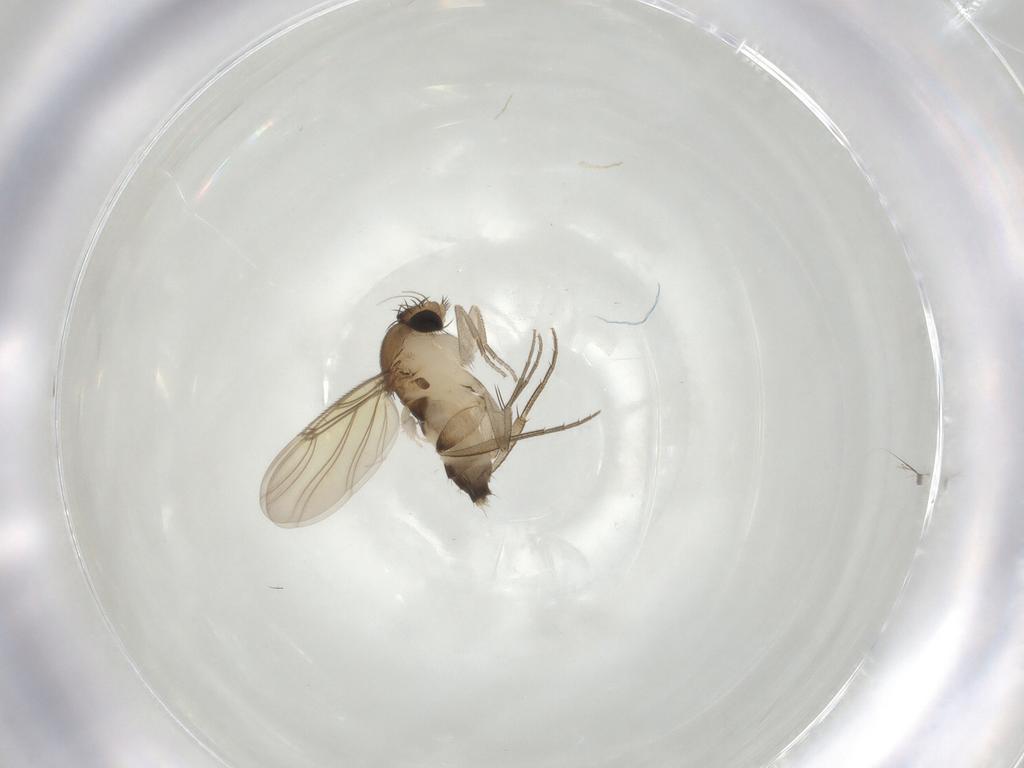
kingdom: Animalia
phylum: Arthropoda
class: Insecta
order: Diptera
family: Phoridae
